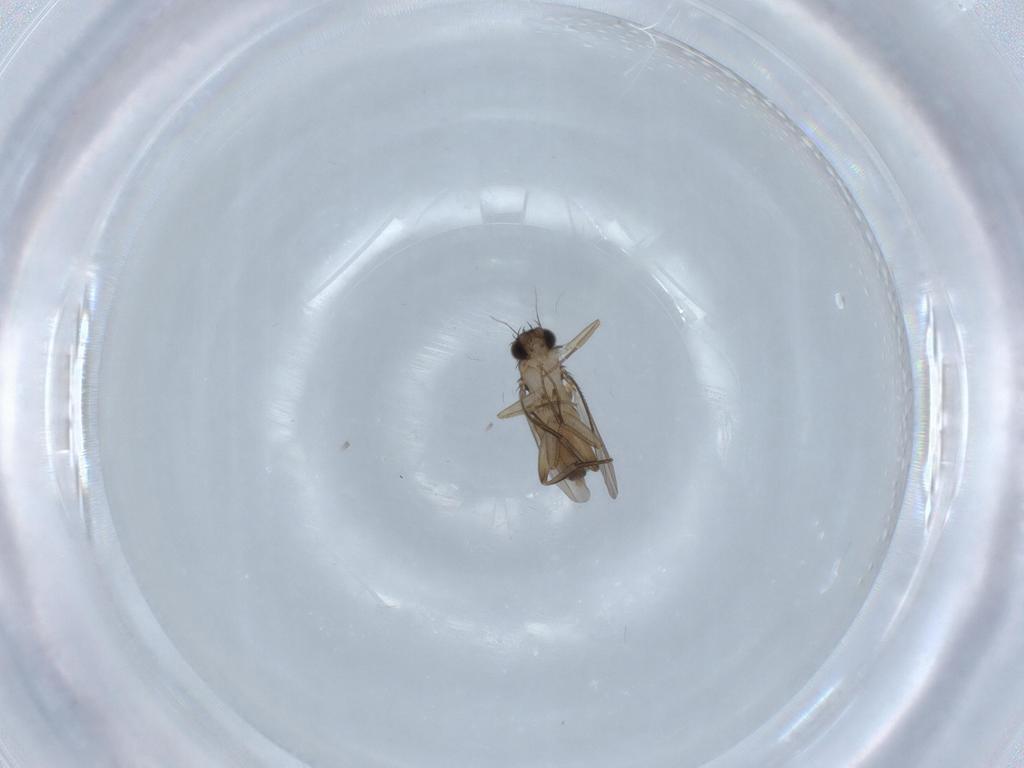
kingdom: Animalia
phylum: Arthropoda
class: Insecta
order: Diptera
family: Phoridae
